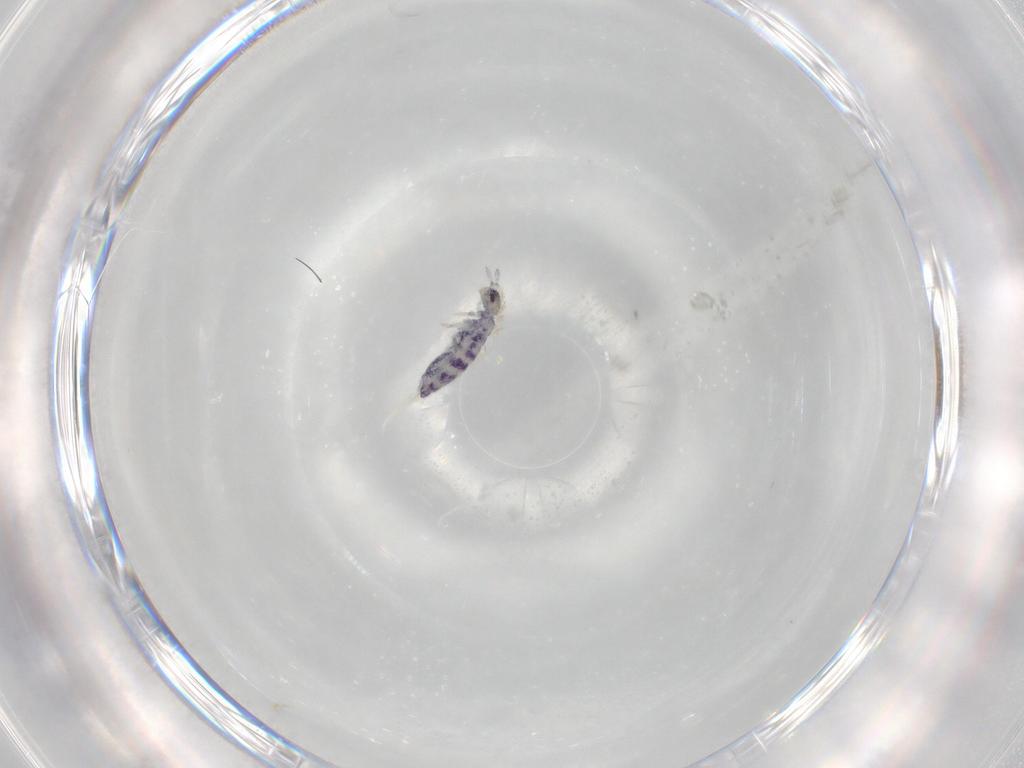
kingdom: Animalia
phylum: Arthropoda
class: Collembola
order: Entomobryomorpha
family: Entomobryidae
